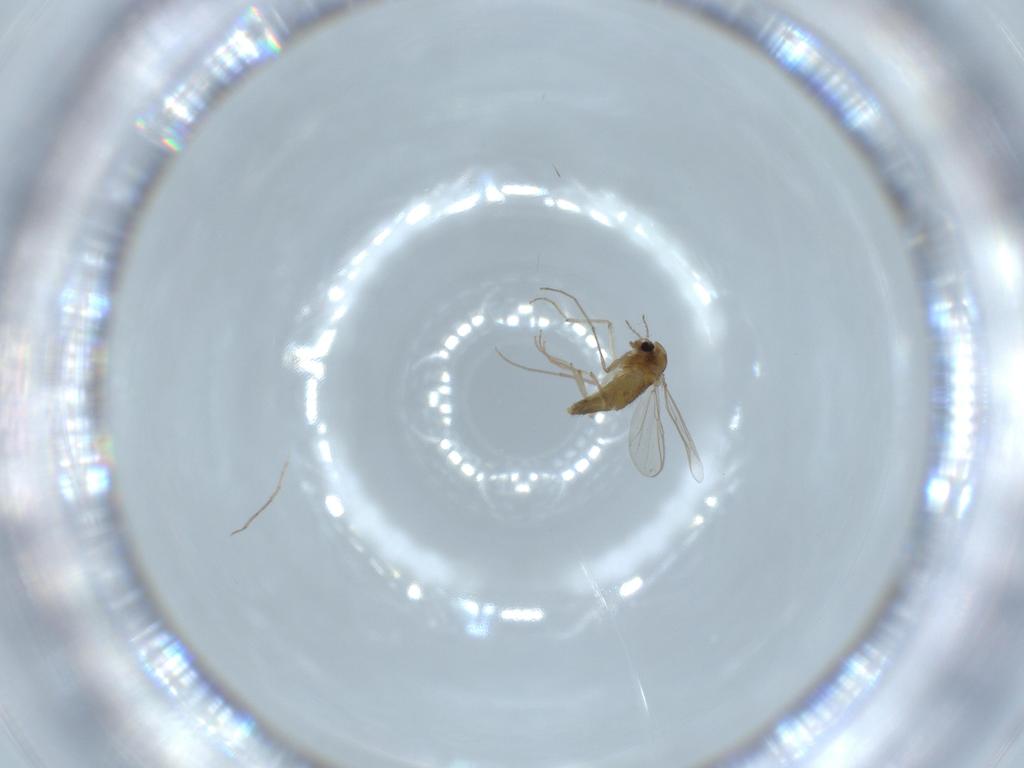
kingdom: Animalia
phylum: Arthropoda
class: Insecta
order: Diptera
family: Chironomidae
